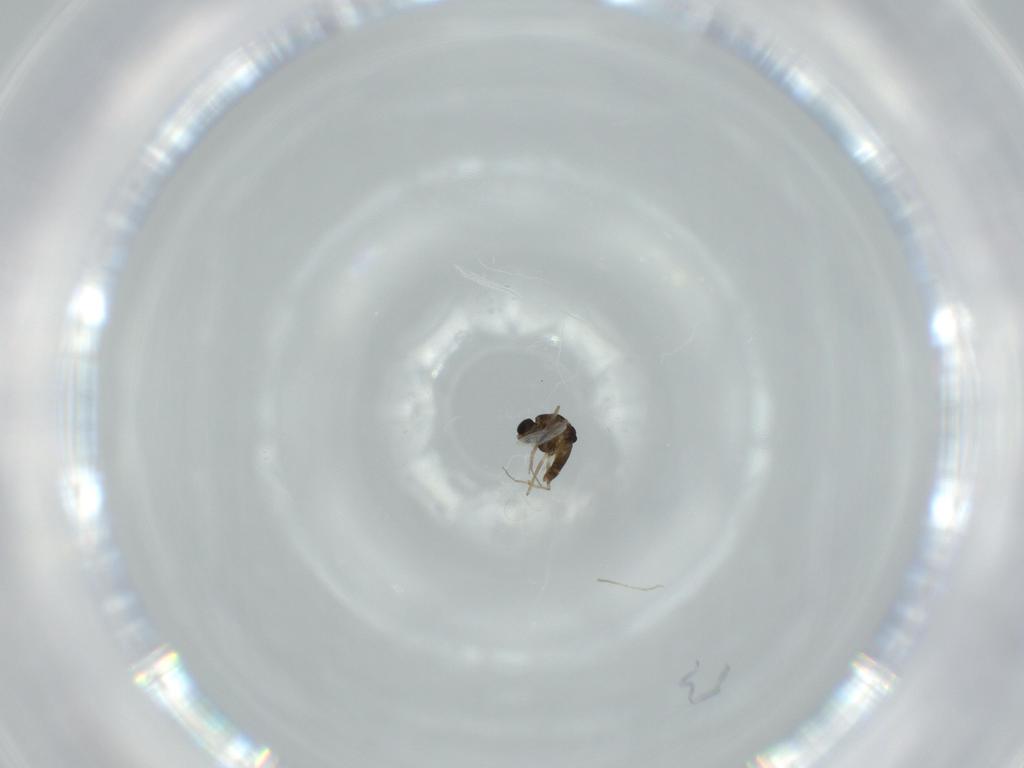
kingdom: Animalia
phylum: Arthropoda
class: Insecta
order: Diptera
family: Chironomidae
